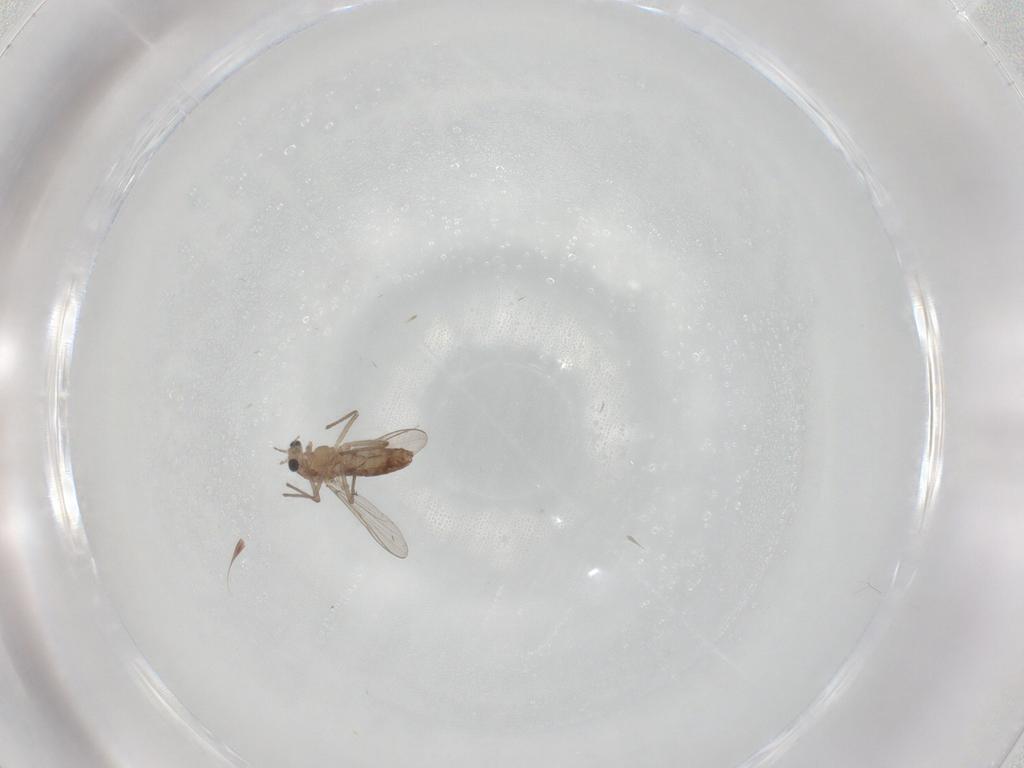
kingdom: Animalia
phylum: Arthropoda
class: Insecta
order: Diptera
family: Chironomidae
